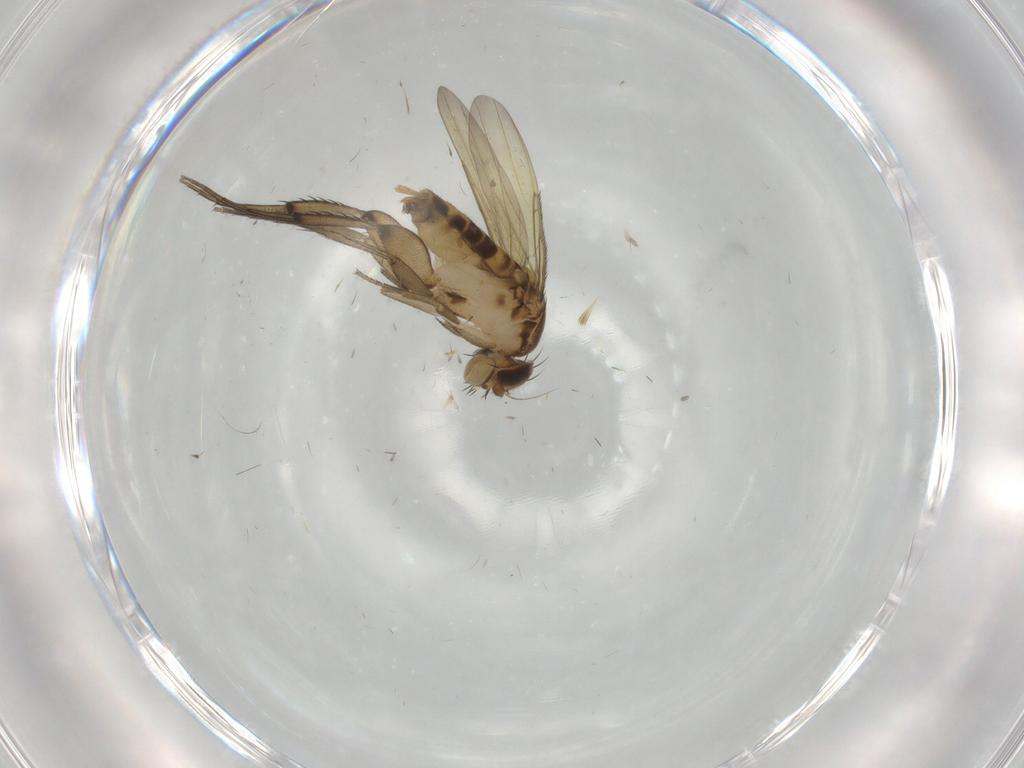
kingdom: Animalia
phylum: Arthropoda
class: Insecta
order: Diptera
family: Phoridae
